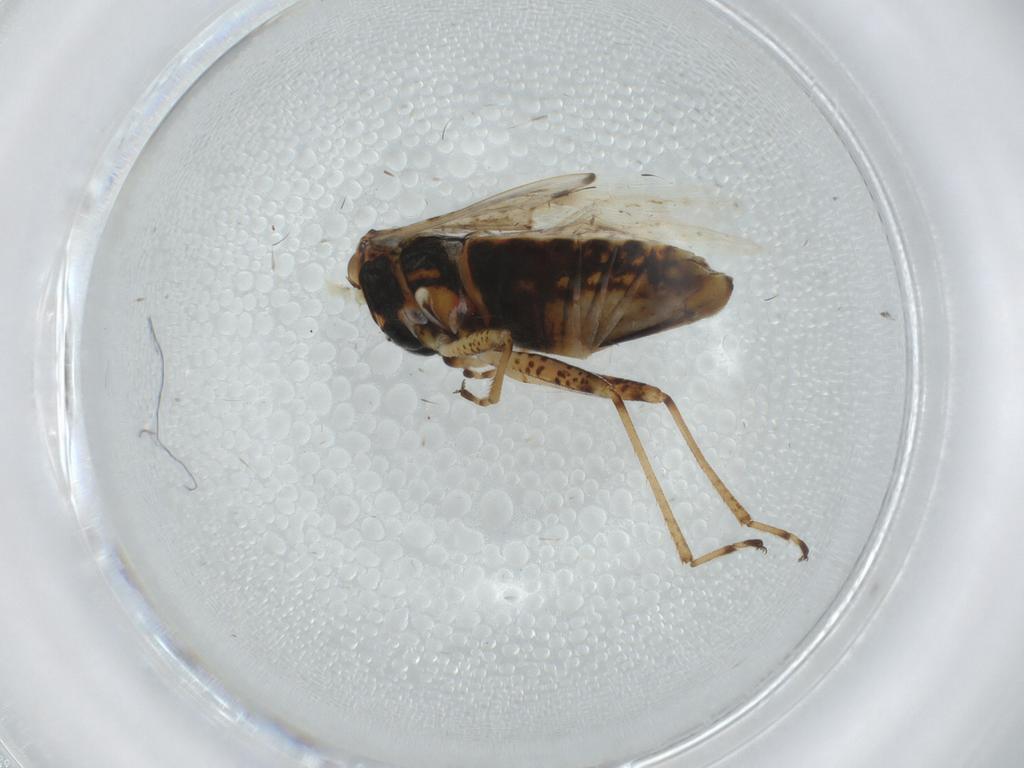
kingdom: Animalia
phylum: Arthropoda
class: Insecta
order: Hemiptera
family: Lygaeidae
